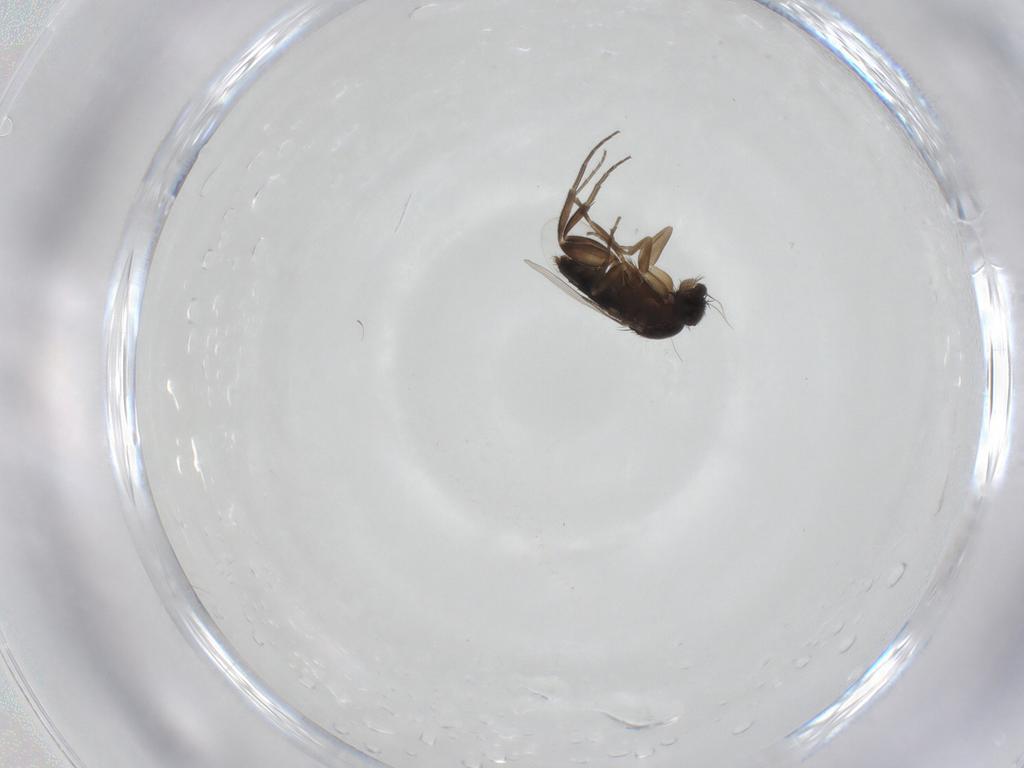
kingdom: Animalia
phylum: Arthropoda
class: Insecta
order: Diptera
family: Phoridae
